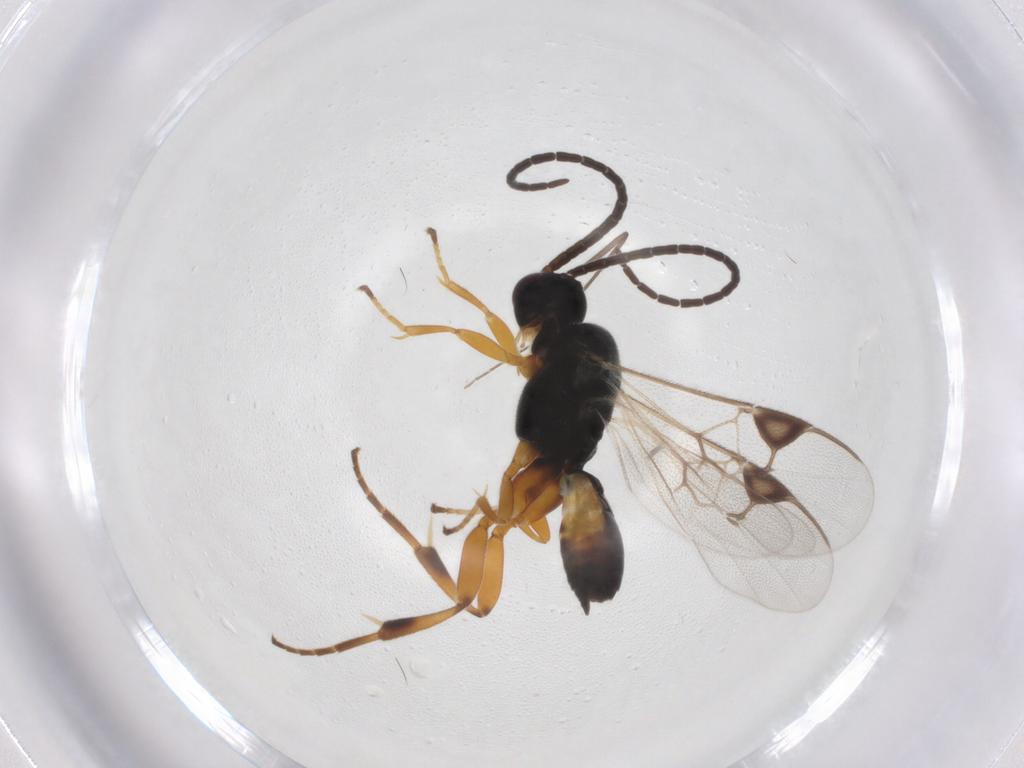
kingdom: Animalia
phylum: Arthropoda
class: Insecta
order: Hymenoptera
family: Braconidae
